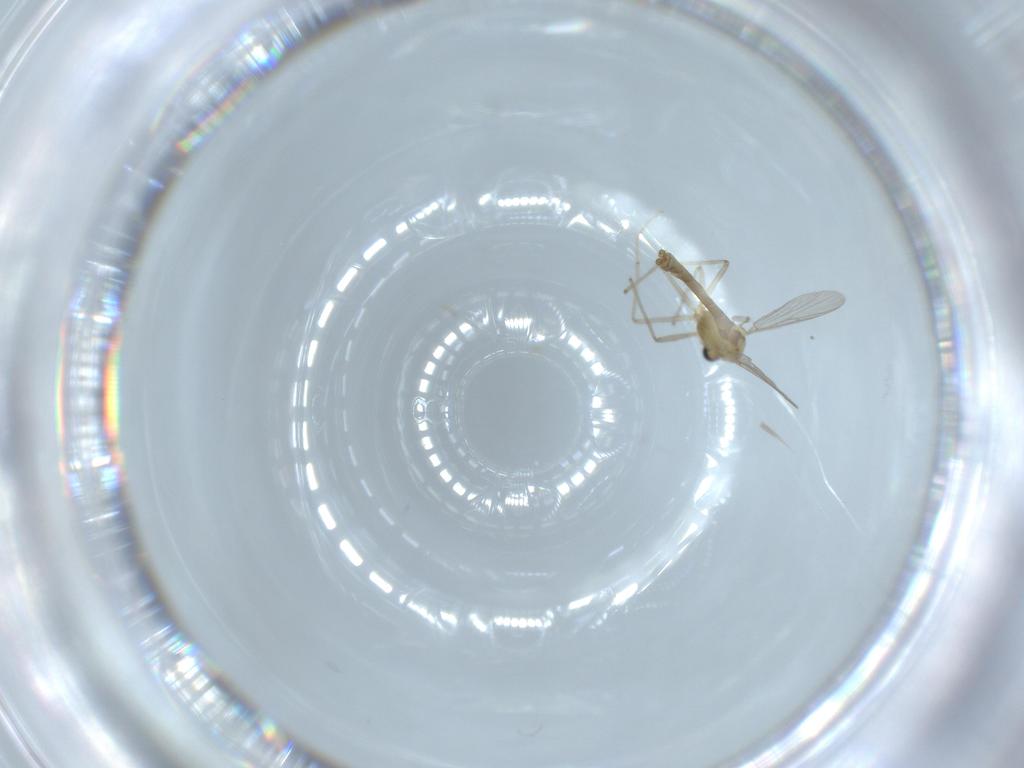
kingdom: Animalia
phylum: Arthropoda
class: Insecta
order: Diptera
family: Chironomidae
